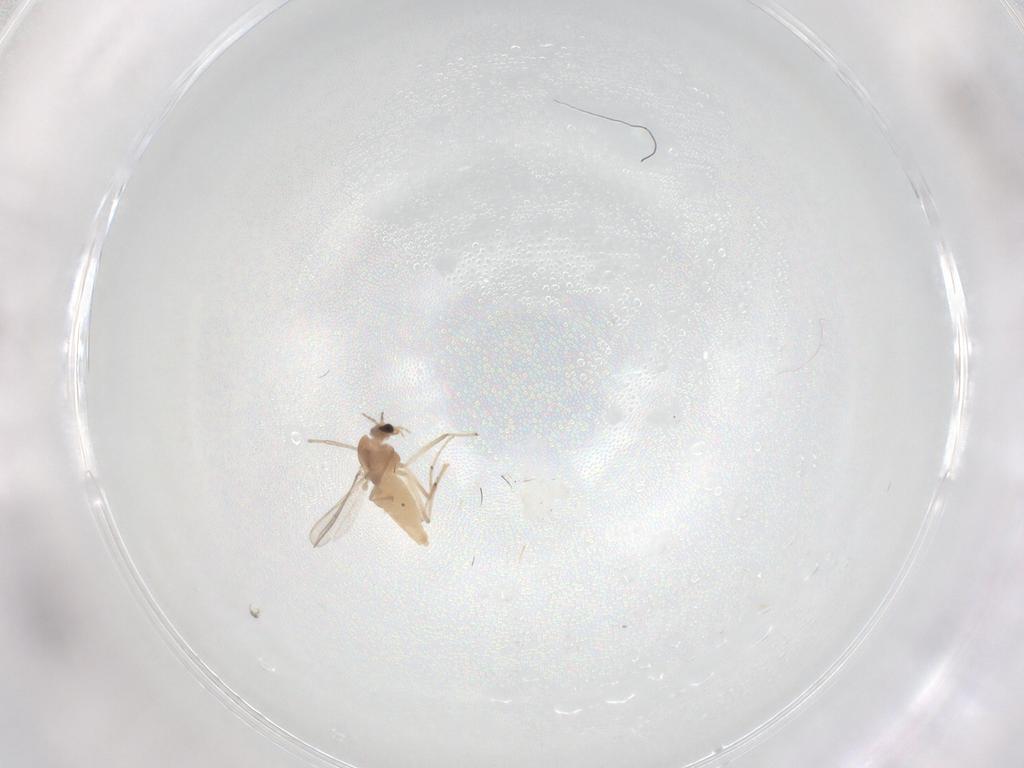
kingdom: Animalia
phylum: Arthropoda
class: Insecta
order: Diptera
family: Chironomidae
